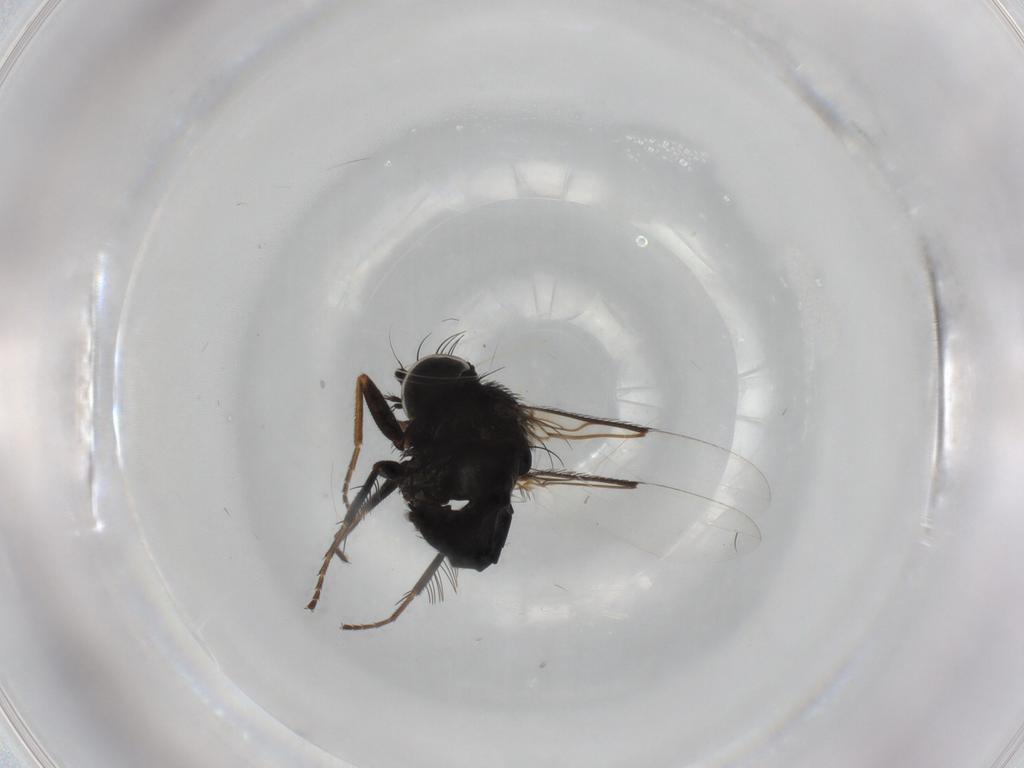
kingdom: Animalia
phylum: Arthropoda
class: Insecta
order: Diptera
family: Phoridae
